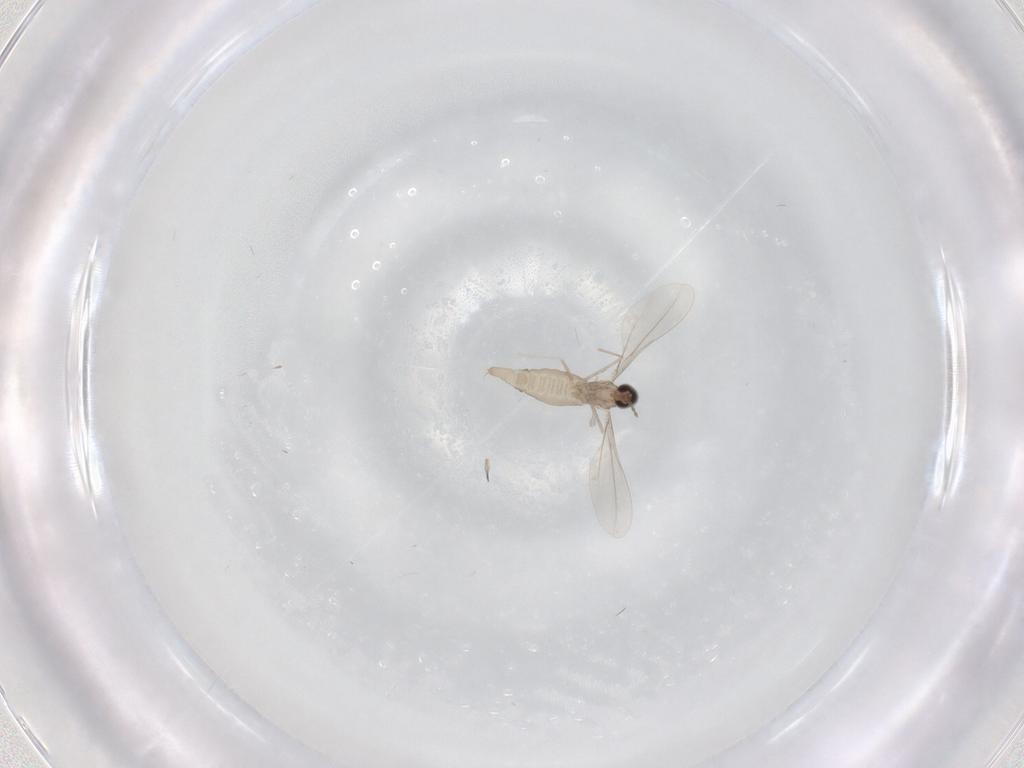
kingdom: Animalia
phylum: Arthropoda
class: Insecta
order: Diptera
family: Cecidomyiidae
